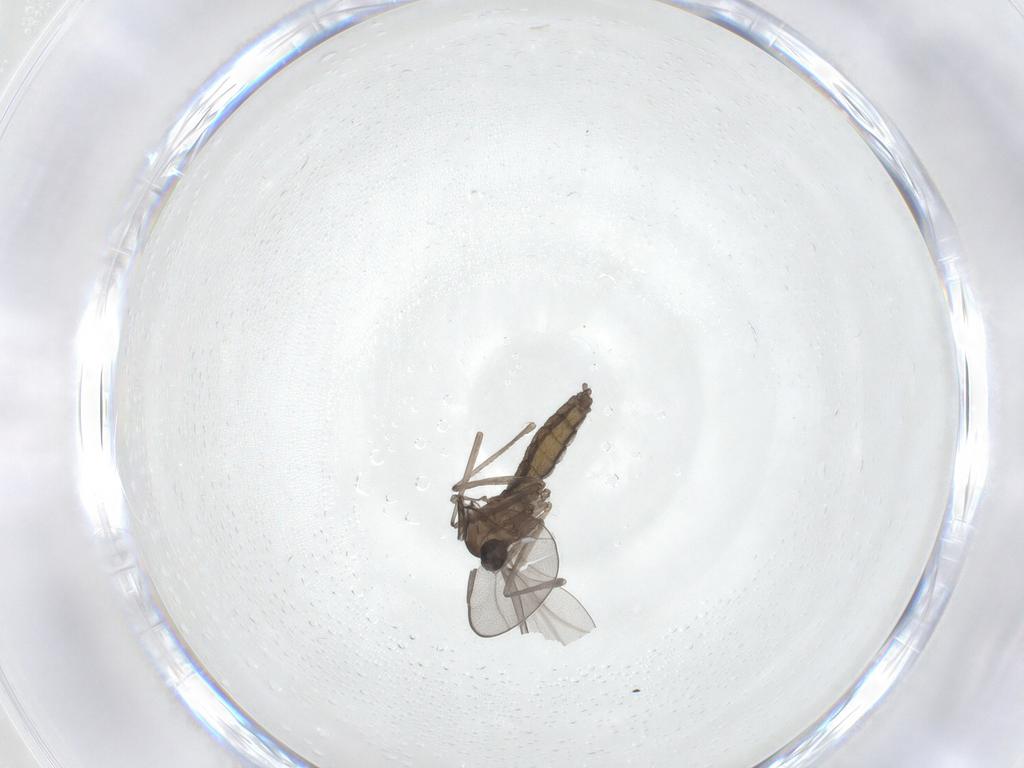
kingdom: Animalia
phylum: Arthropoda
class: Insecta
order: Diptera
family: Cecidomyiidae
